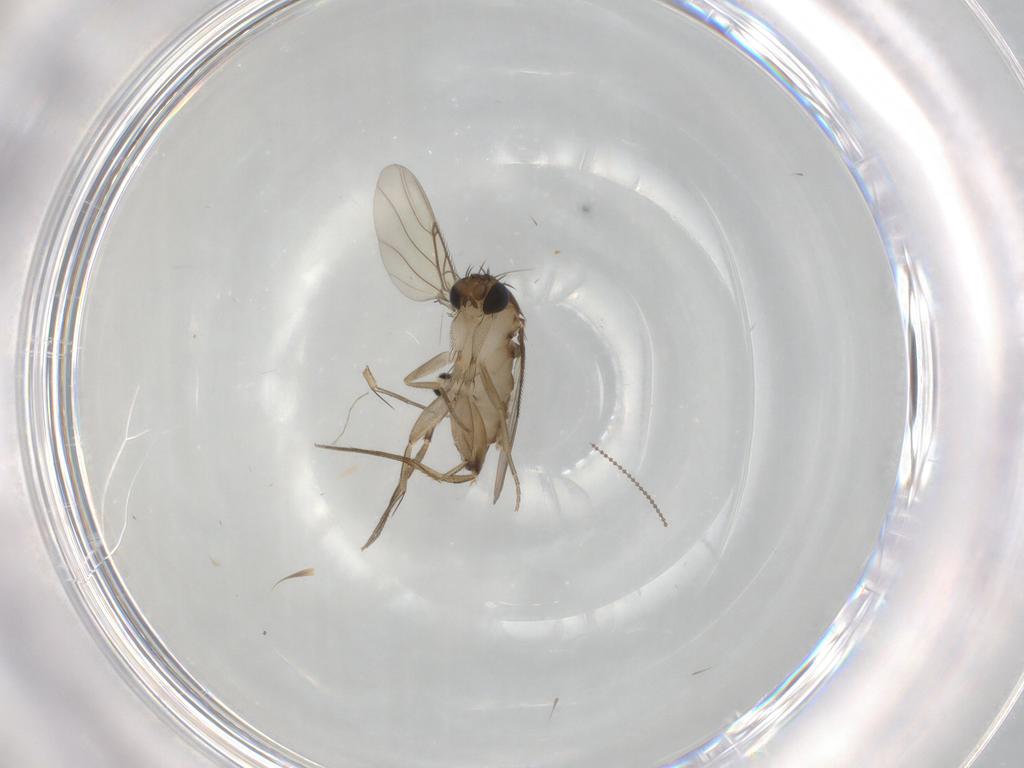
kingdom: Animalia
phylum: Arthropoda
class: Insecta
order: Diptera
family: Phoridae
